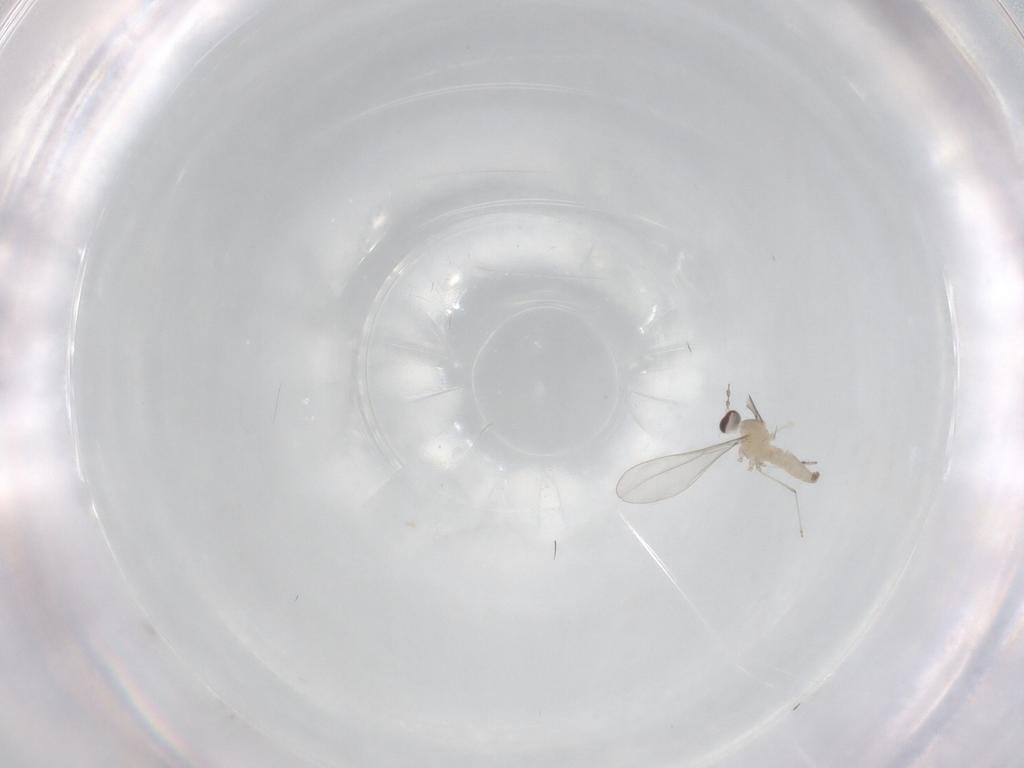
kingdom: Animalia
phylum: Arthropoda
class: Insecta
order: Diptera
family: Cecidomyiidae
